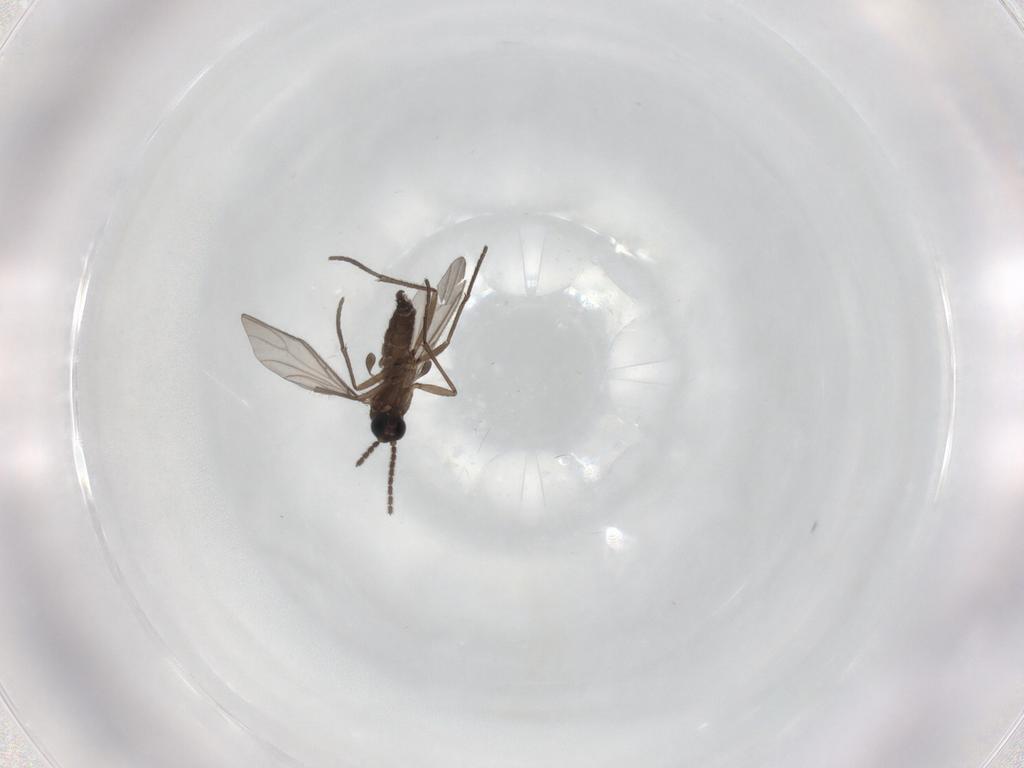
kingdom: Animalia
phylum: Arthropoda
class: Insecta
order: Diptera
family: Sciaridae
